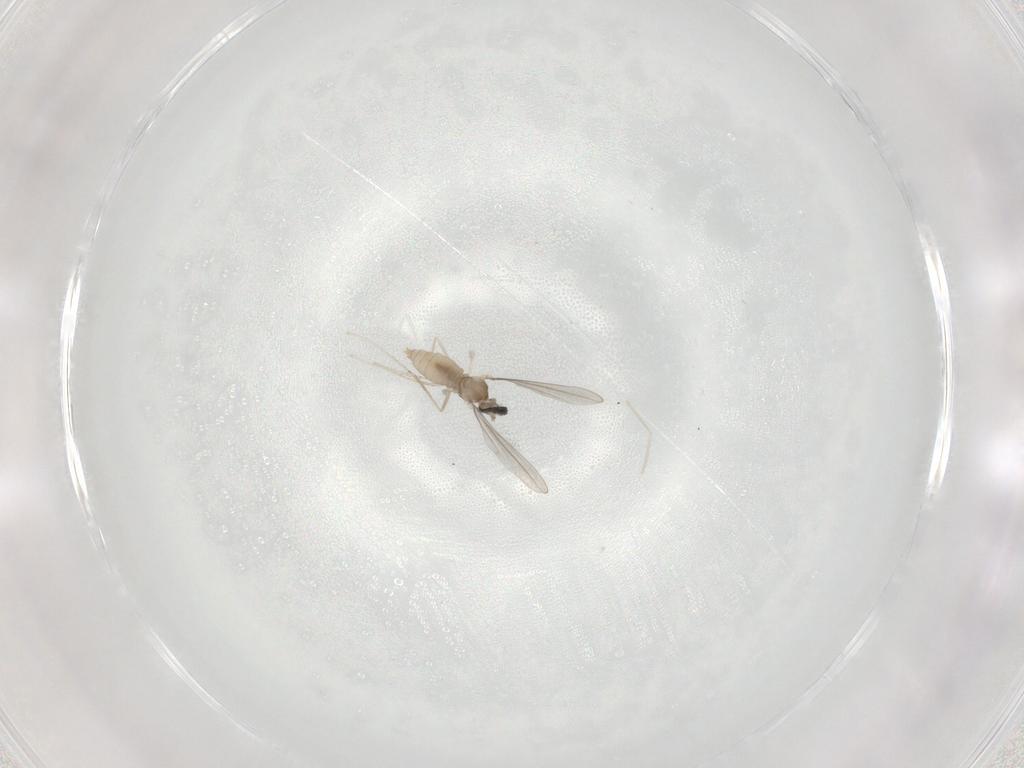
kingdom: Animalia
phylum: Arthropoda
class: Insecta
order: Diptera
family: Cecidomyiidae
